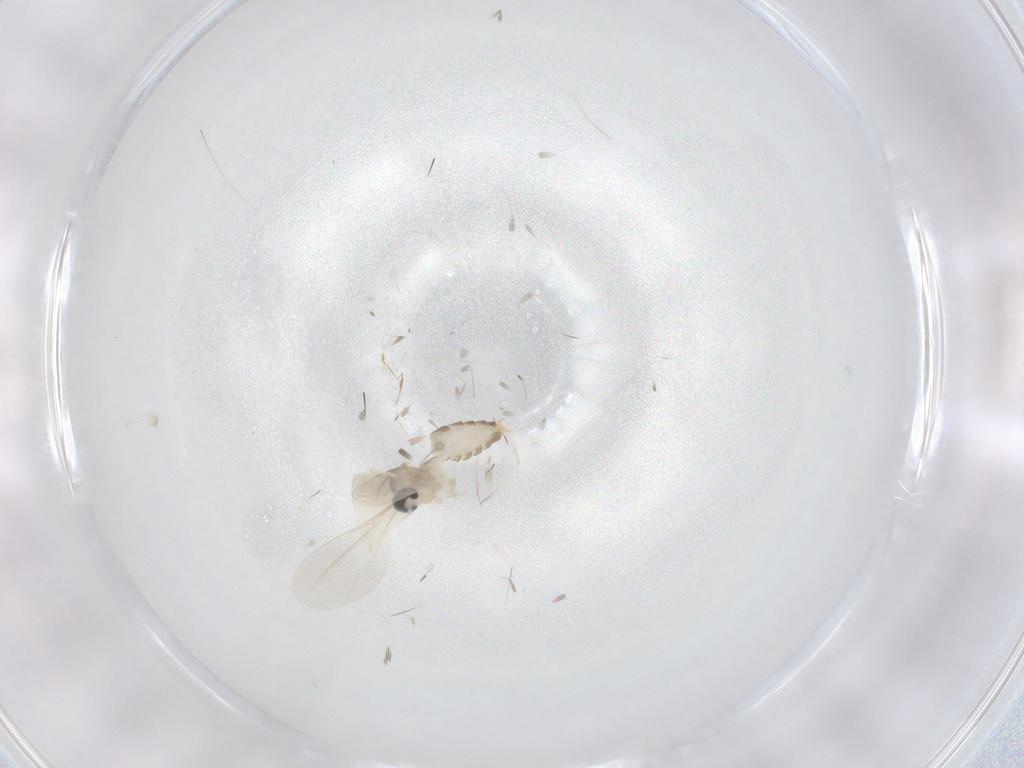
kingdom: Animalia
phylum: Arthropoda
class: Insecta
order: Diptera
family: Cecidomyiidae
